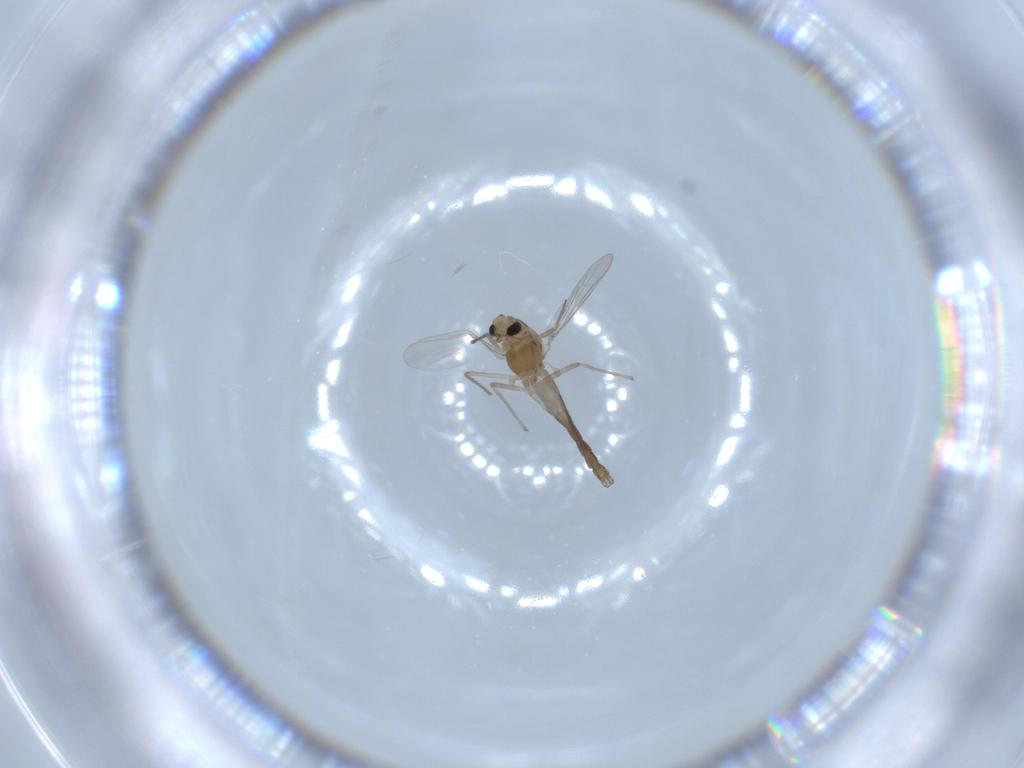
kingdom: Animalia
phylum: Arthropoda
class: Insecta
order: Diptera
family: Chironomidae
